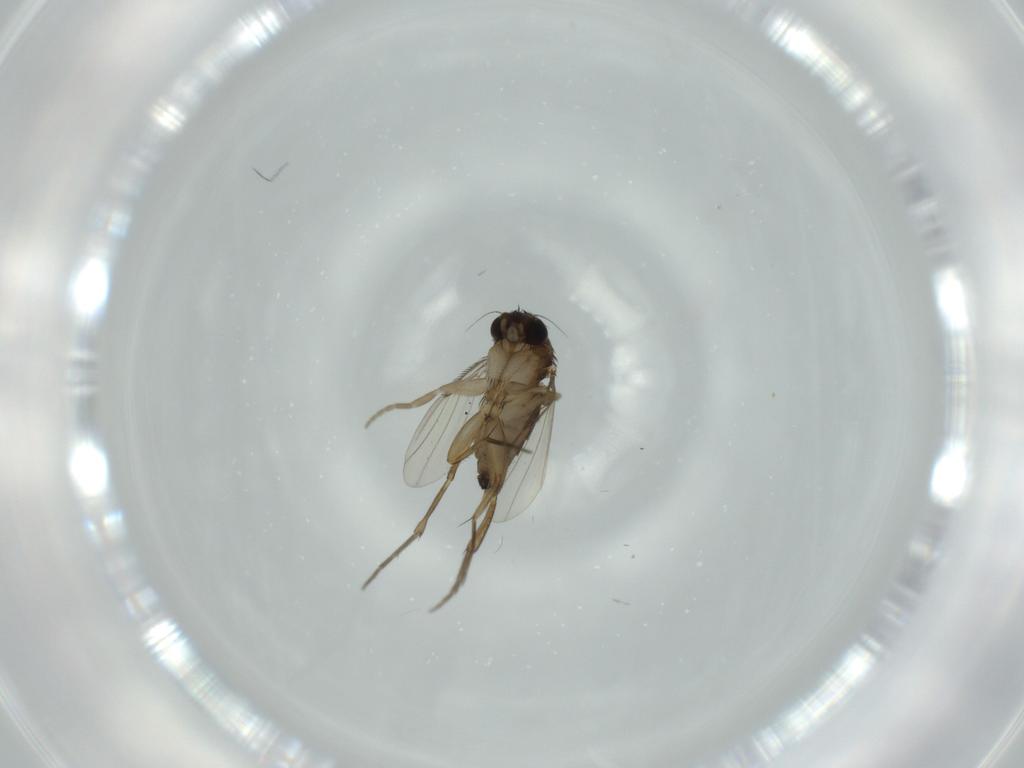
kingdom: Animalia
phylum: Arthropoda
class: Insecta
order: Diptera
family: Phoridae
